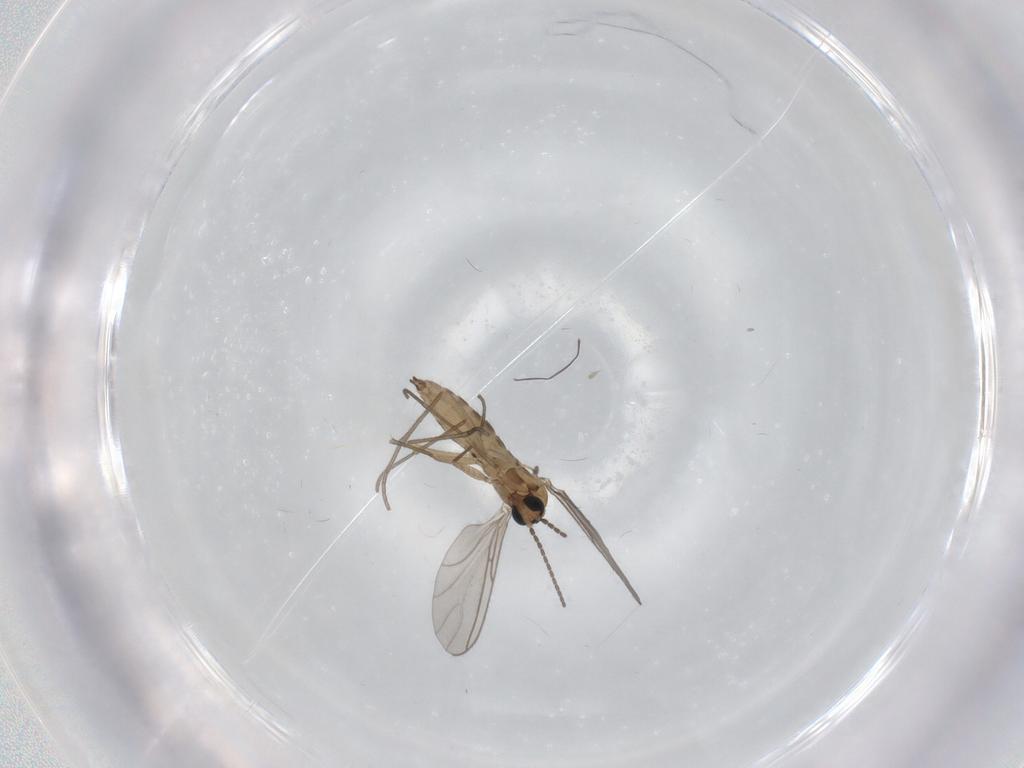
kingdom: Animalia
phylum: Arthropoda
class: Insecta
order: Diptera
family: Sciaridae
